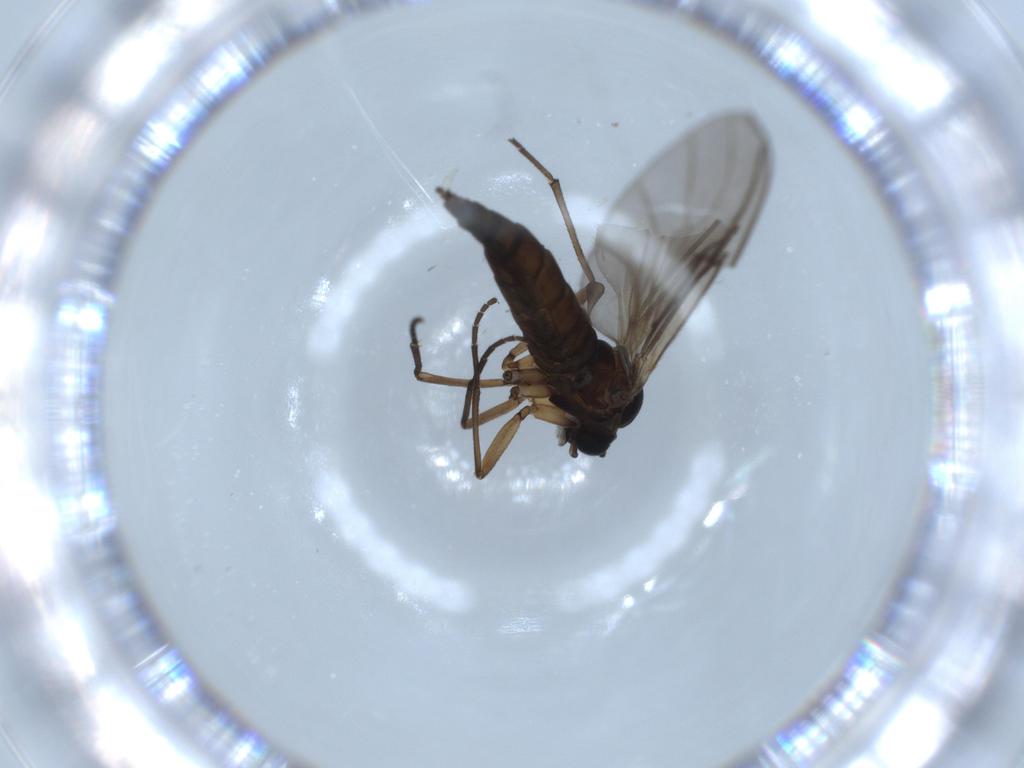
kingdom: Animalia
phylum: Arthropoda
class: Insecta
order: Diptera
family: Sciaridae
